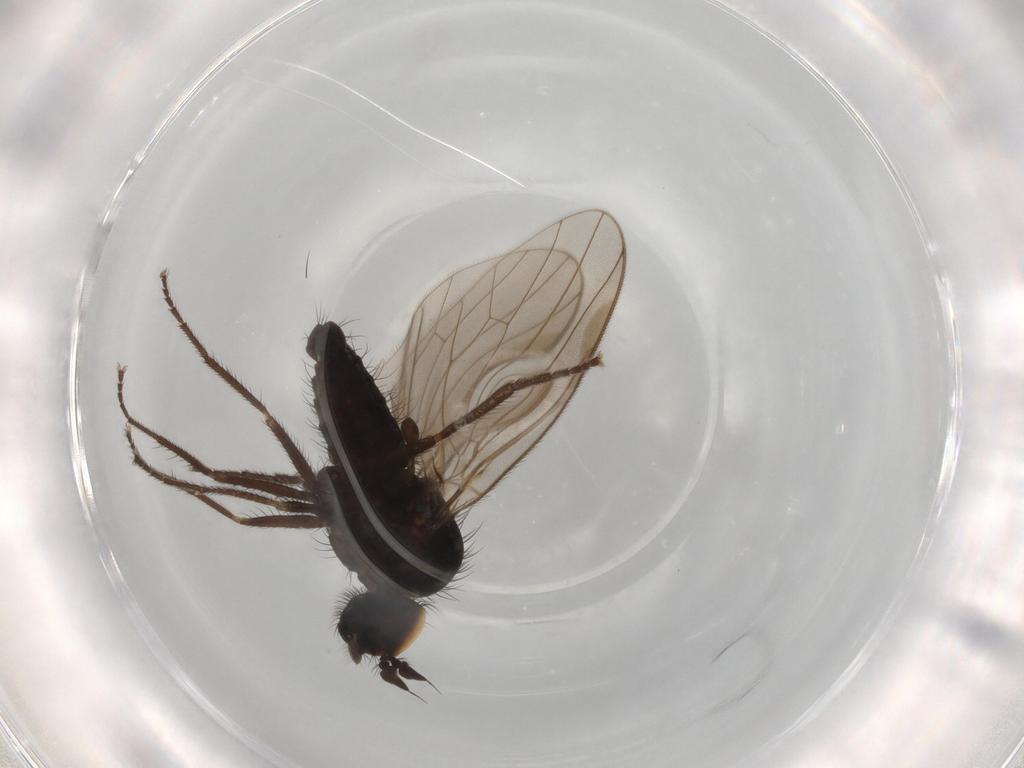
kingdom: Animalia
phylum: Arthropoda
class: Insecta
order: Diptera
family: Dolichopodidae
